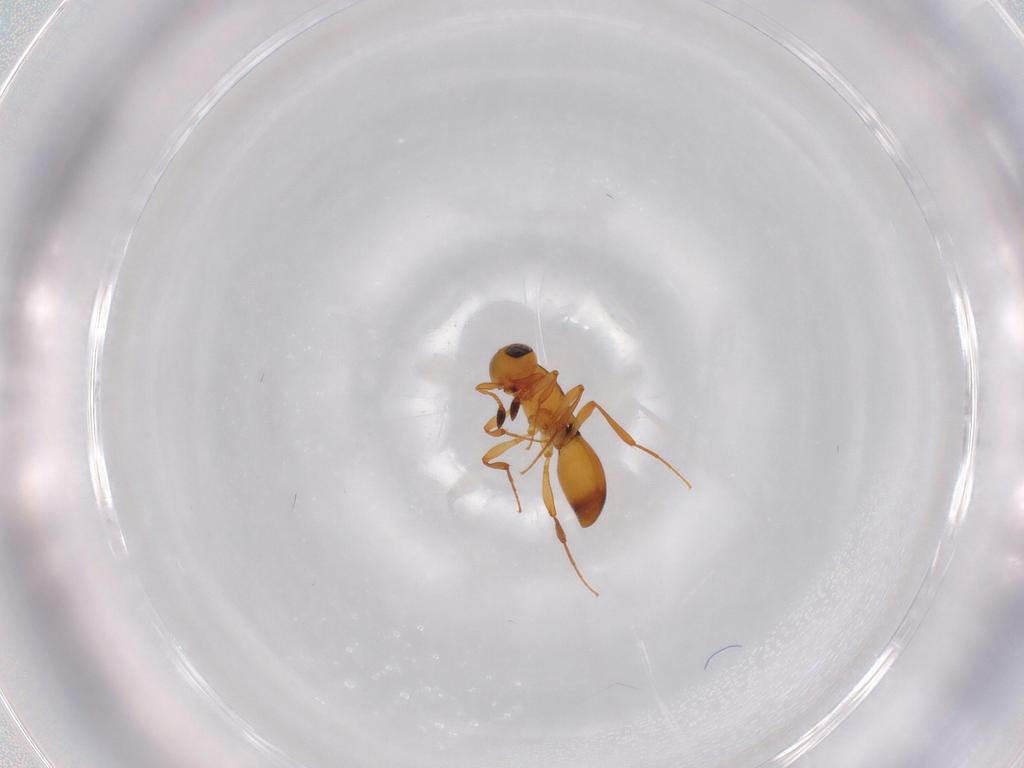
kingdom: Animalia
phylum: Arthropoda
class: Insecta
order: Hymenoptera
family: Platygastridae
